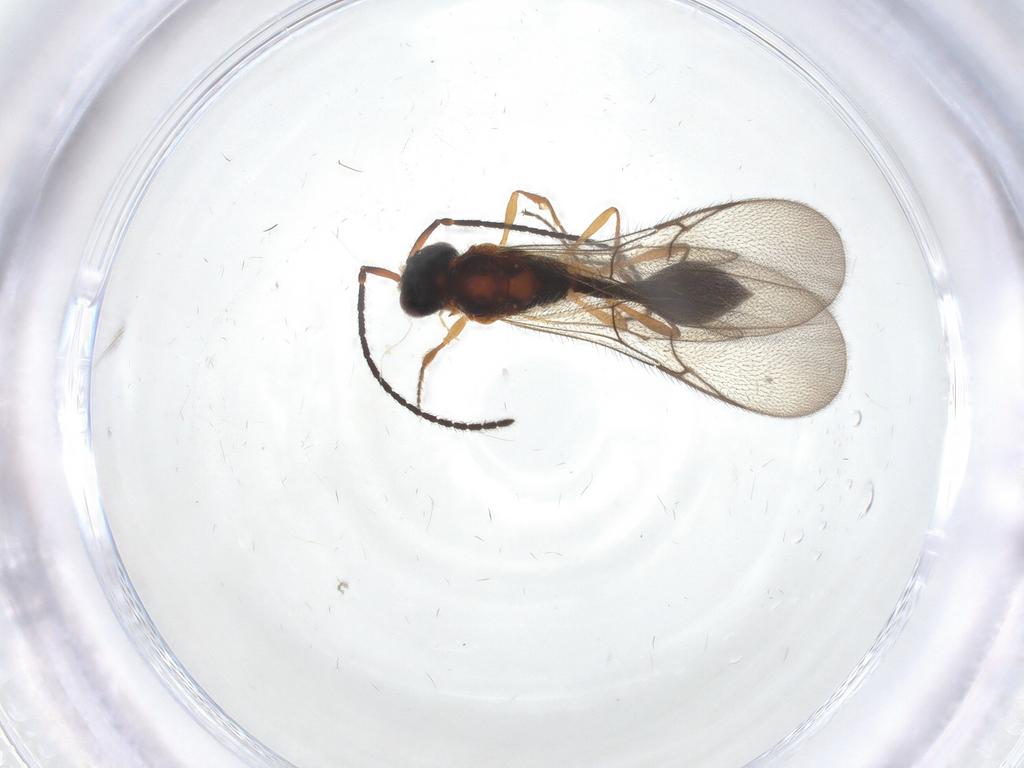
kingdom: Animalia
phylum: Arthropoda
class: Insecta
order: Hymenoptera
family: Diapriidae
